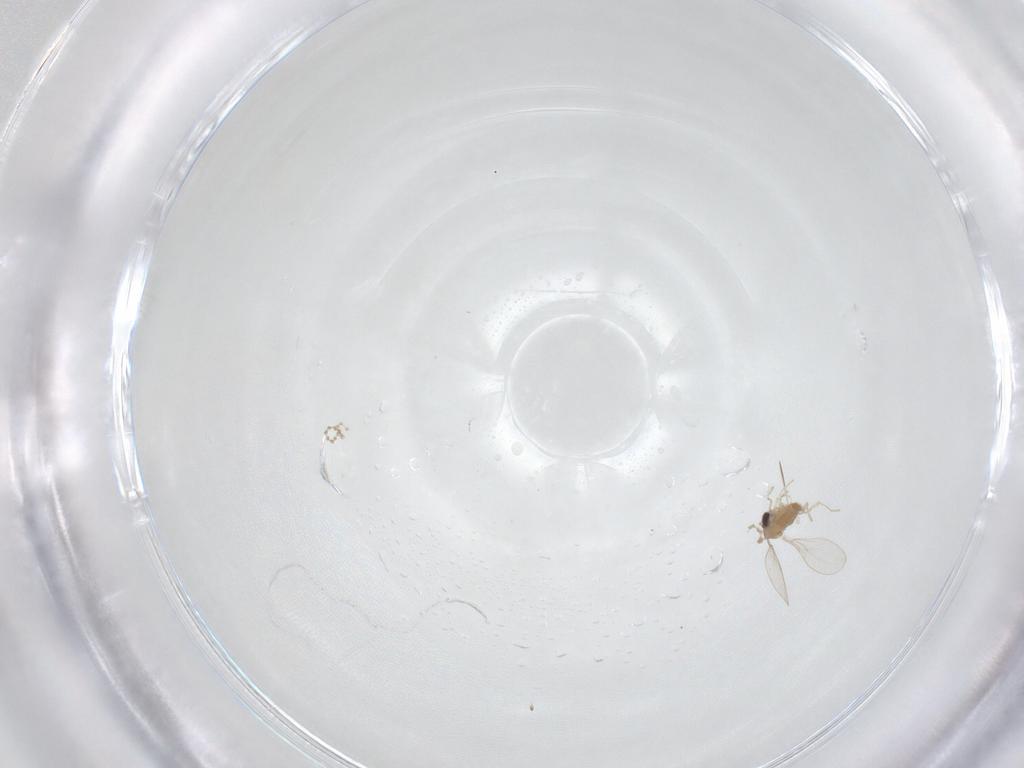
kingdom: Animalia
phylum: Arthropoda
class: Insecta
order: Diptera
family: Cecidomyiidae
